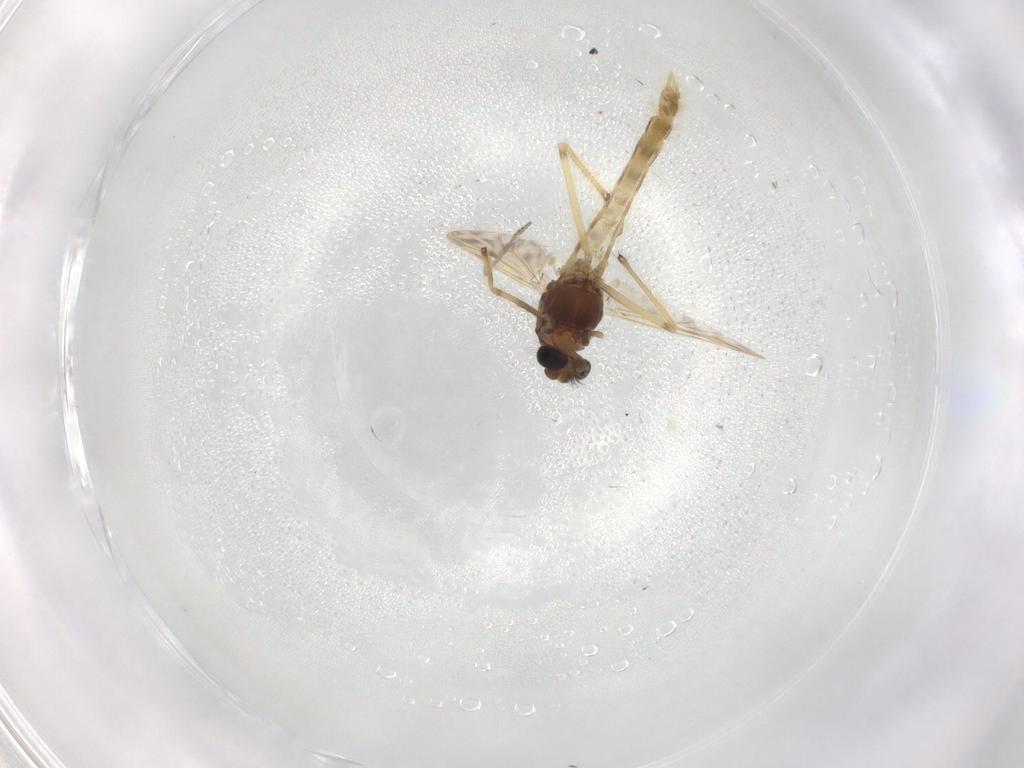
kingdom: Animalia
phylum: Arthropoda
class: Insecta
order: Diptera
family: Chironomidae
